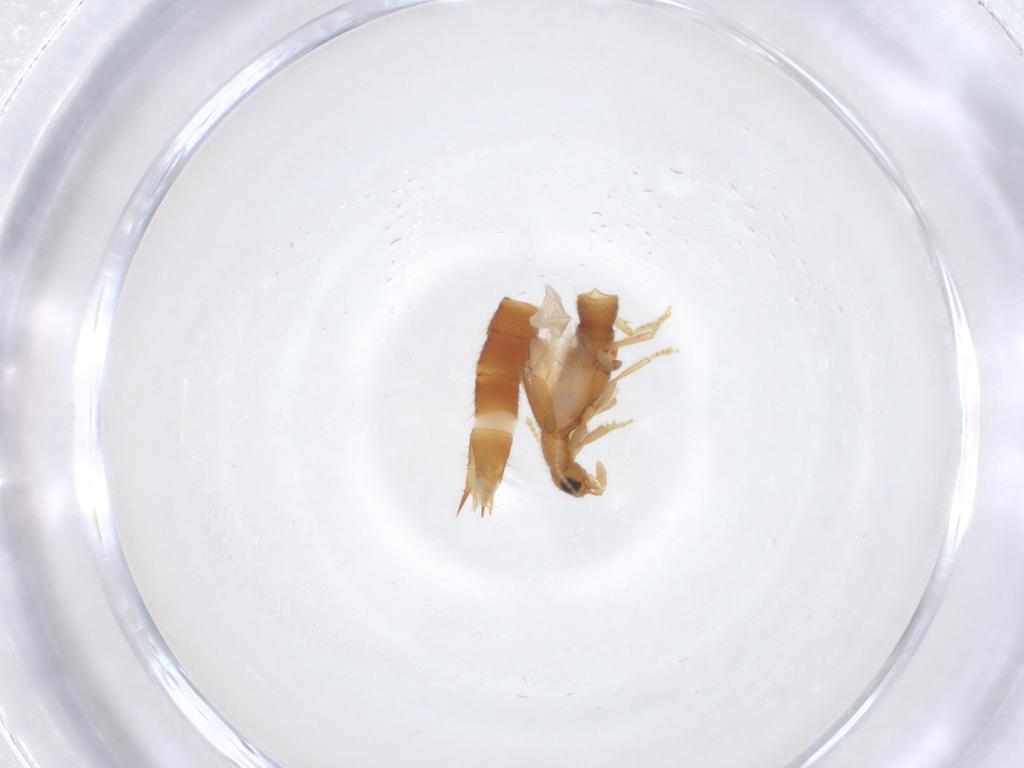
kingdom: Animalia
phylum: Arthropoda
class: Insecta
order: Coleoptera
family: Staphylinidae
